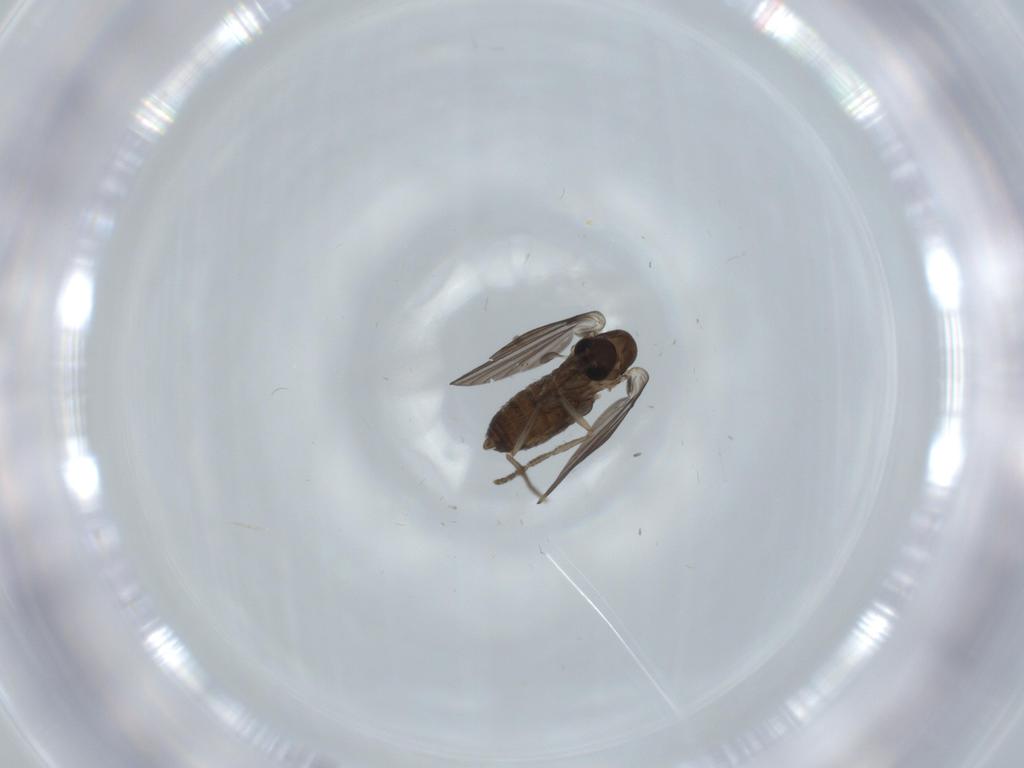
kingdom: Animalia
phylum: Arthropoda
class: Insecta
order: Diptera
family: Psychodidae
